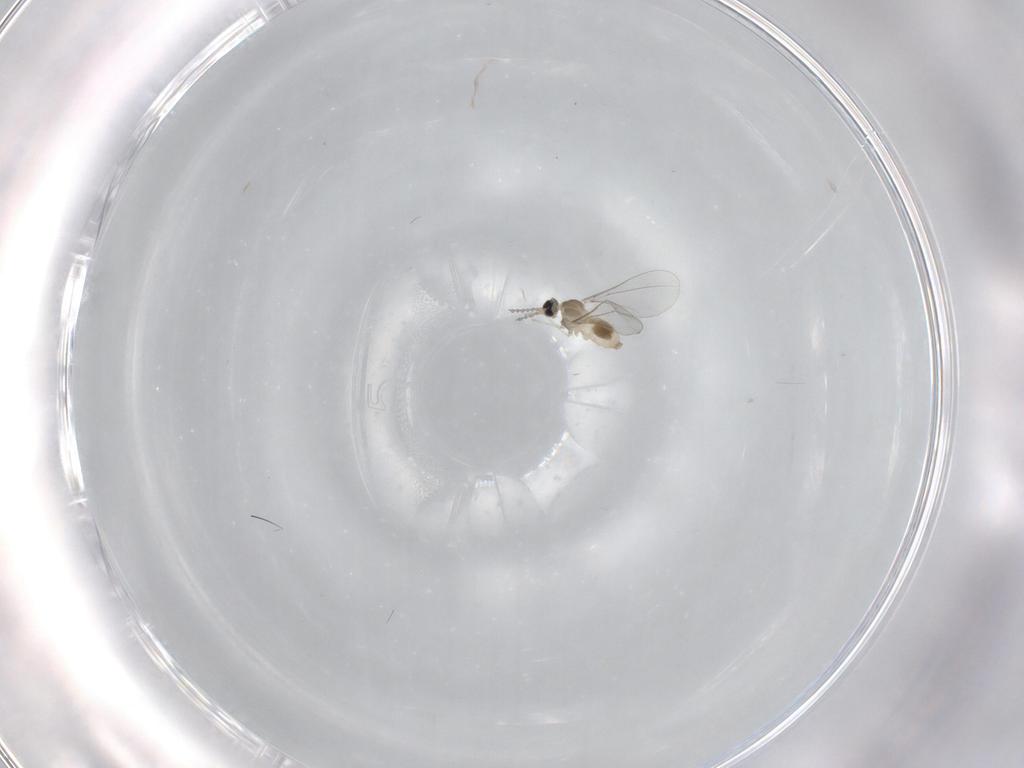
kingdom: Animalia
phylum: Arthropoda
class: Insecta
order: Diptera
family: Cecidomyiidae
